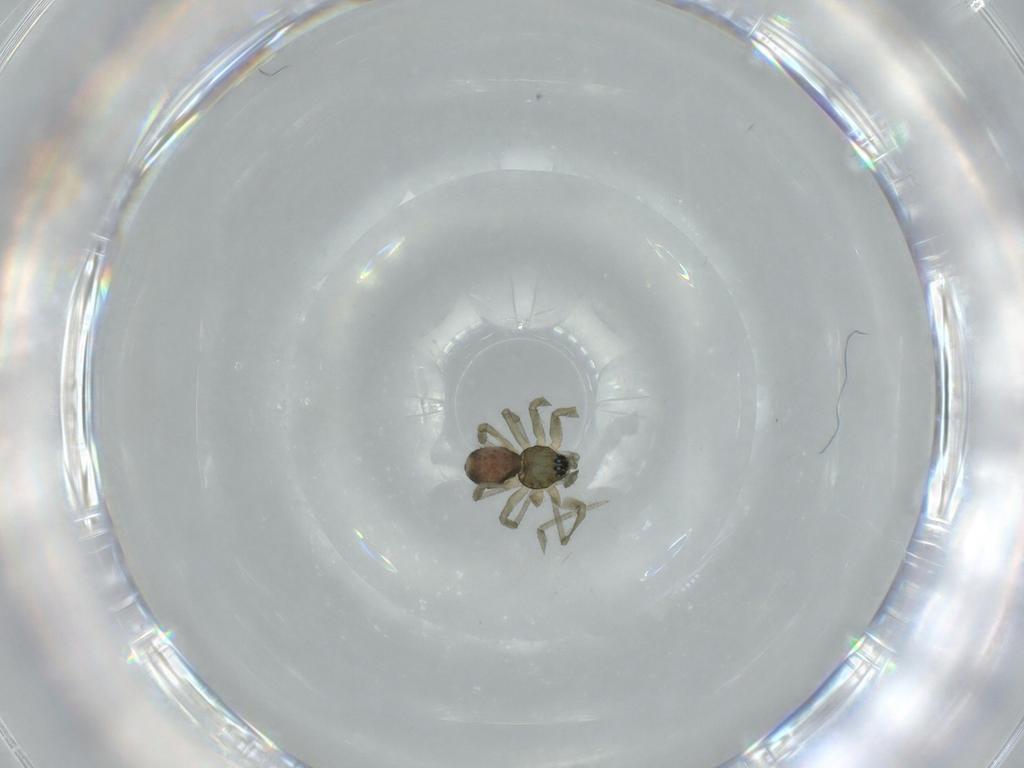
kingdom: Animalia
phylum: Arthropoda
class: Arachnida
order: Araneae
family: Linyphiidae
